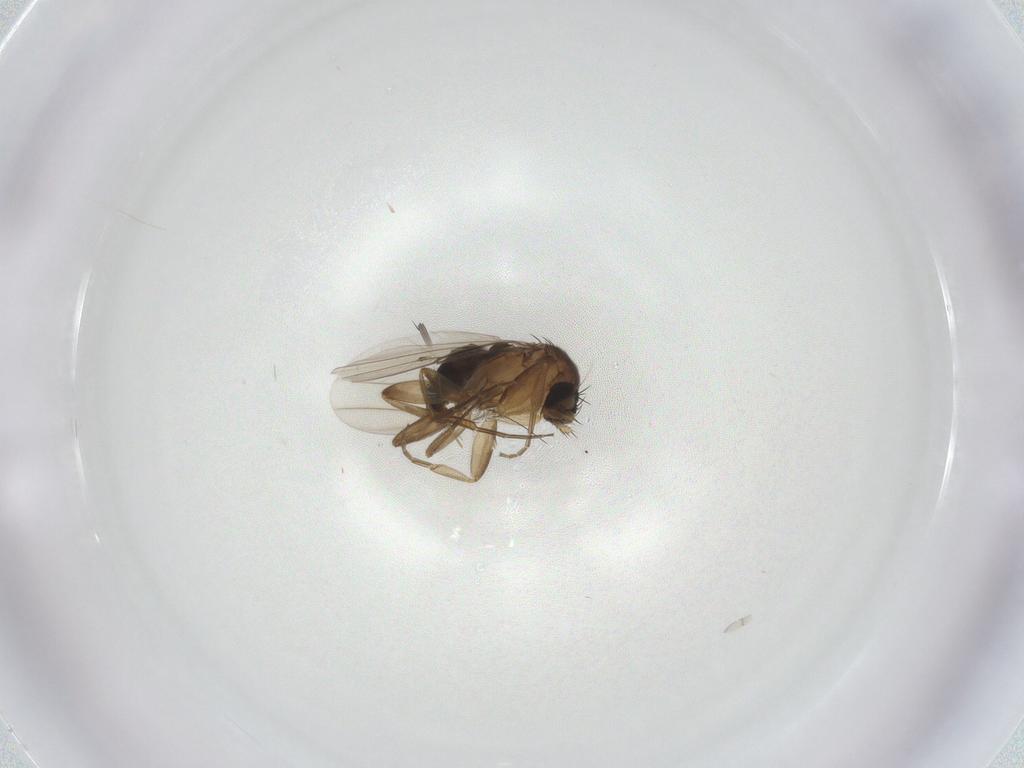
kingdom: Animalia
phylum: Arthropoda
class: Insecta
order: Diptera
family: Phoridae
